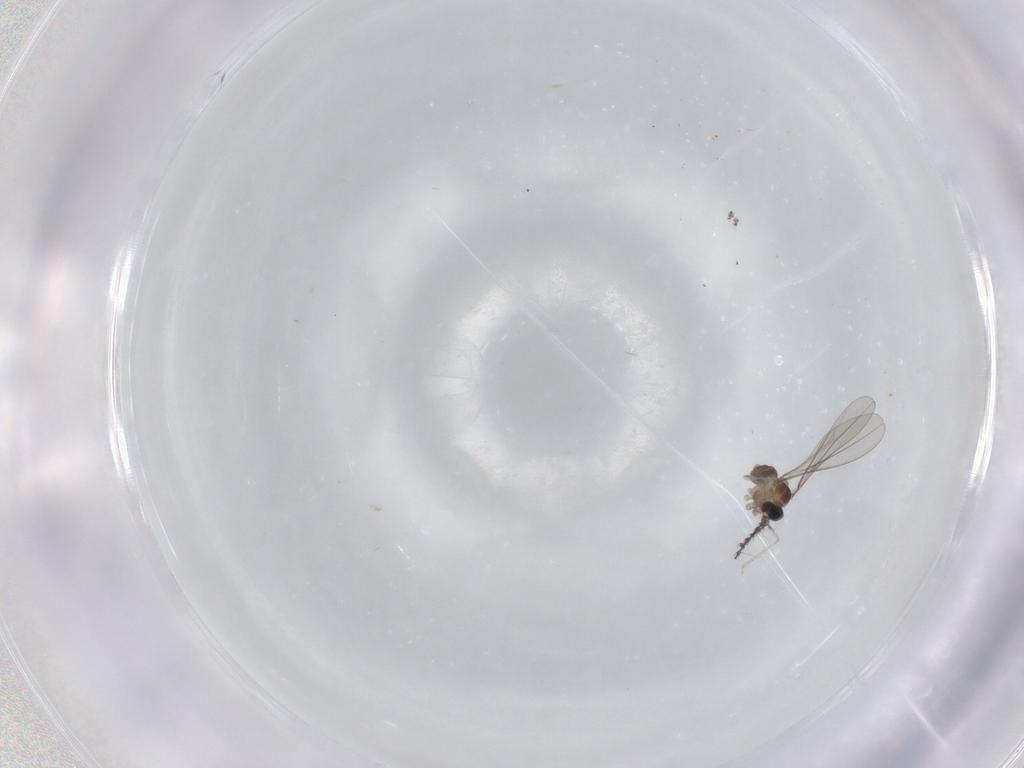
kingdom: Animalia
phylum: Arthropoda
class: Insecta
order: Diptera
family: Cecidomyiidae
